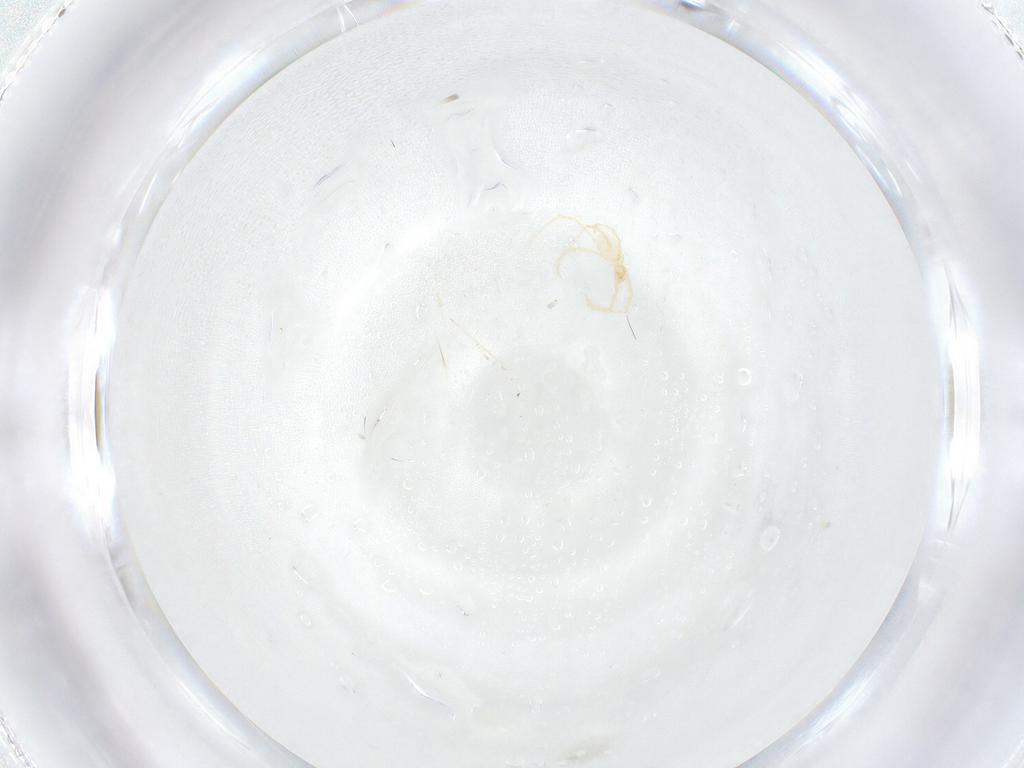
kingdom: Animalia
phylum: Arthropoda
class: Arachnida
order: Trombidiformes
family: Erythraeidae
